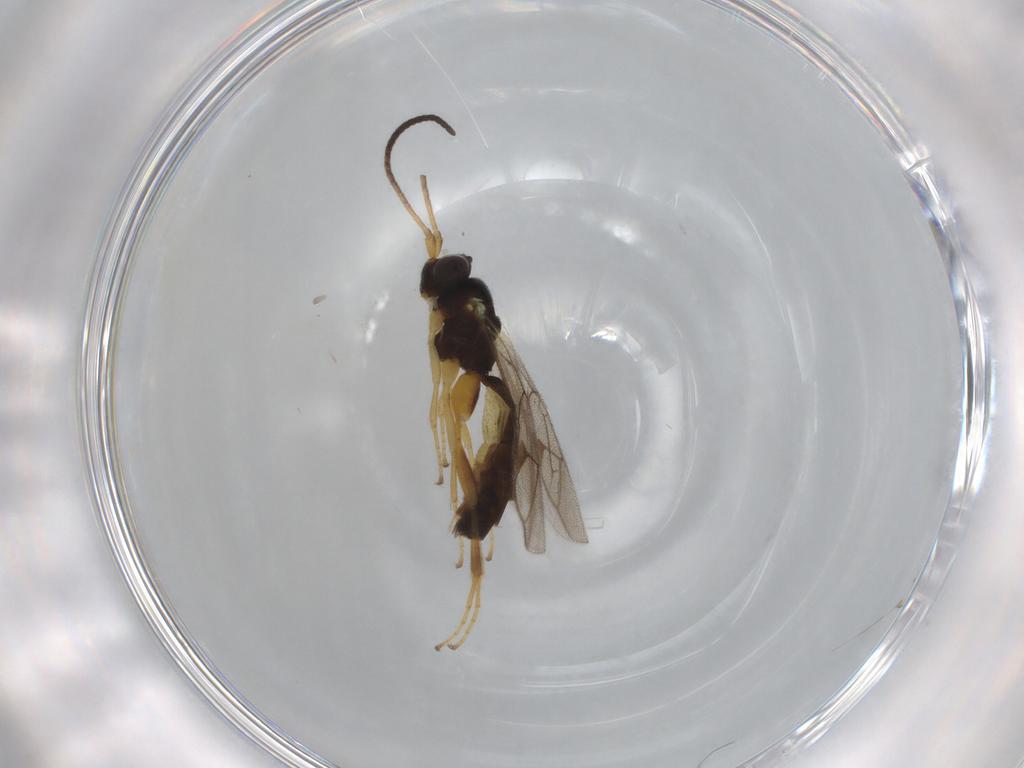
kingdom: Animalia
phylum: Arthropoda
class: Insecta
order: Hymenoptera
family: Ichneumonidae
